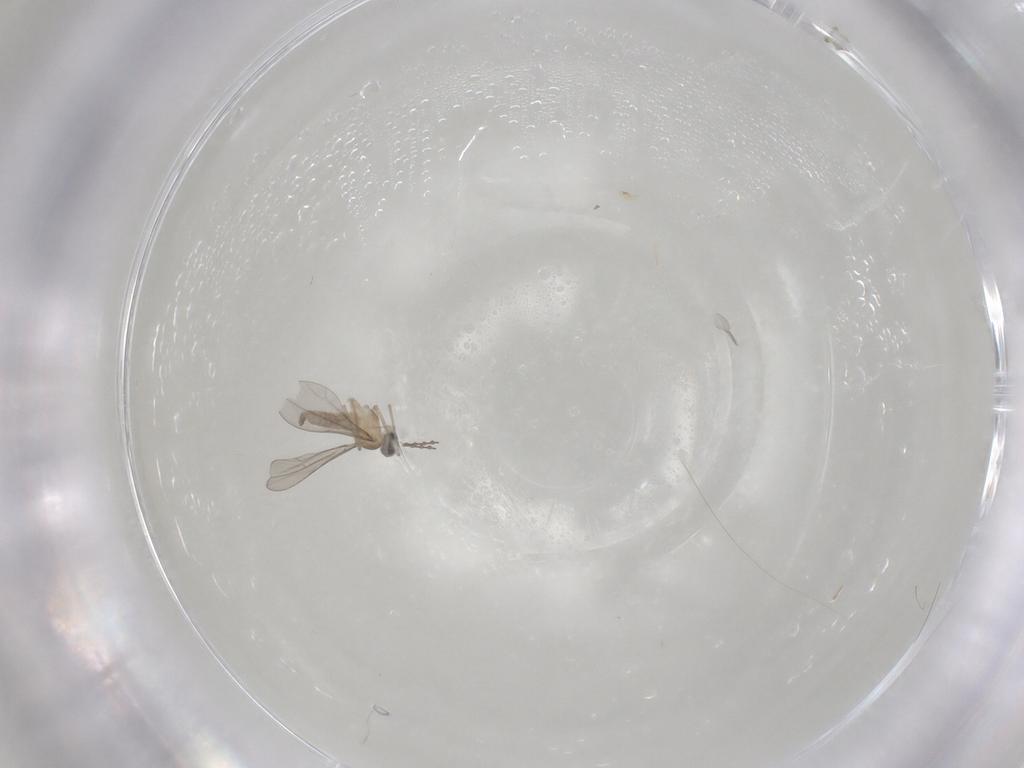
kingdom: Animalia
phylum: Arthropoda
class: Insecta
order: Diptera
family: Cecidomyiidae
